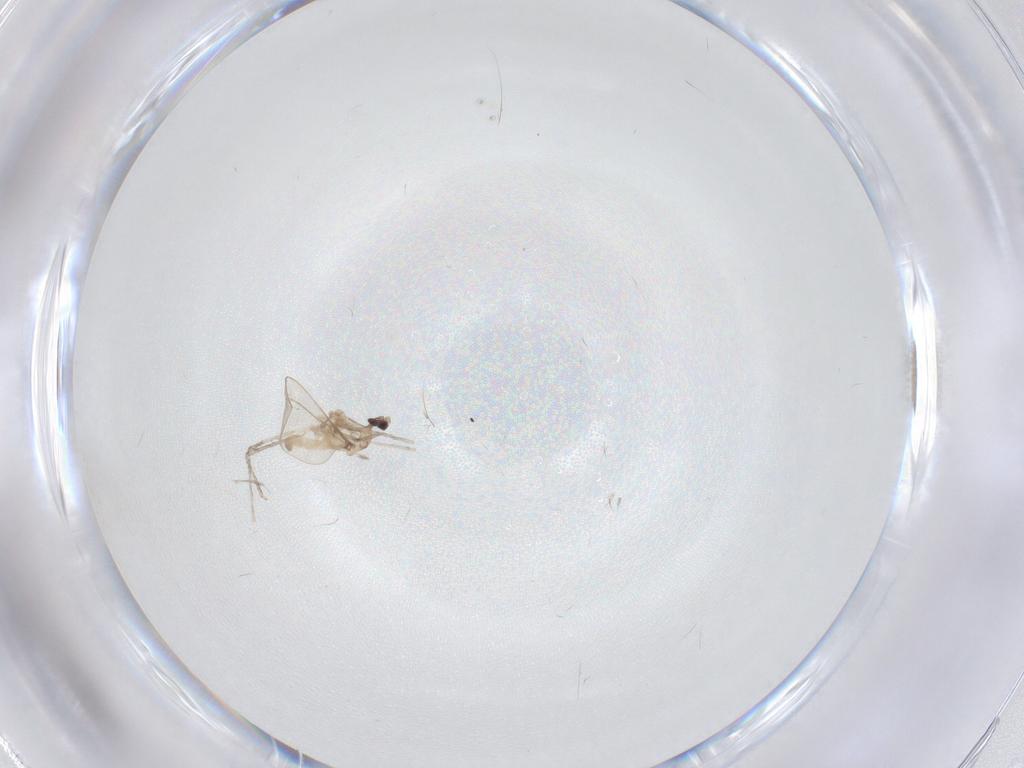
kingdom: Animalia
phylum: Arthropoda
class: Insecta
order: Diptera
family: Cecidomyiidae
